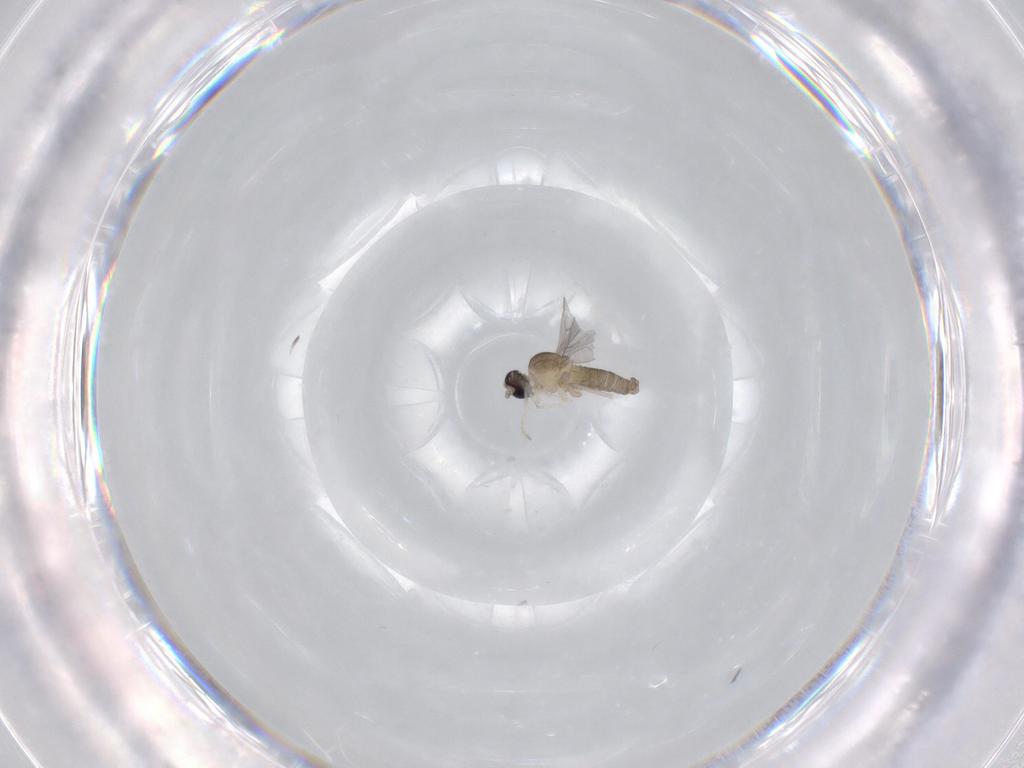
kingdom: Animalia
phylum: Arthropoda
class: Insecta
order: Diptera
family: Cecidomyiidae
